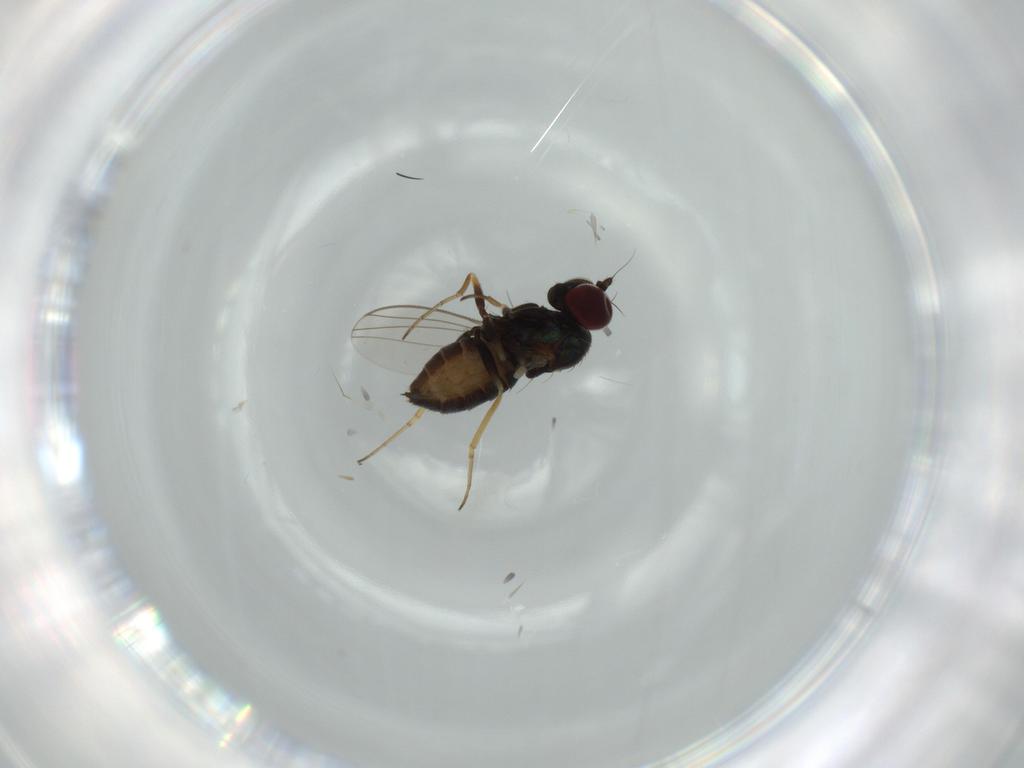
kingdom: Animalia
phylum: Arthropoda
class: Insecta
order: Diptera
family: Dolichopodidae
